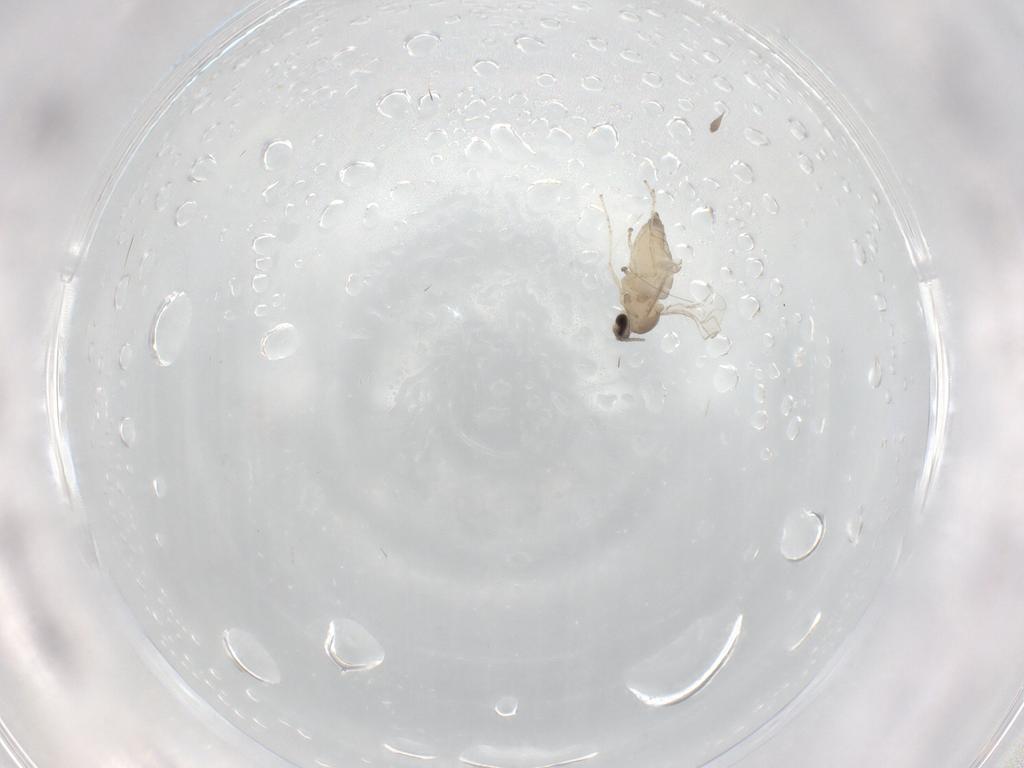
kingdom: Animalia
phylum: Arthropoda
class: Insecta
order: Diptera
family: Cecidomyiidae
